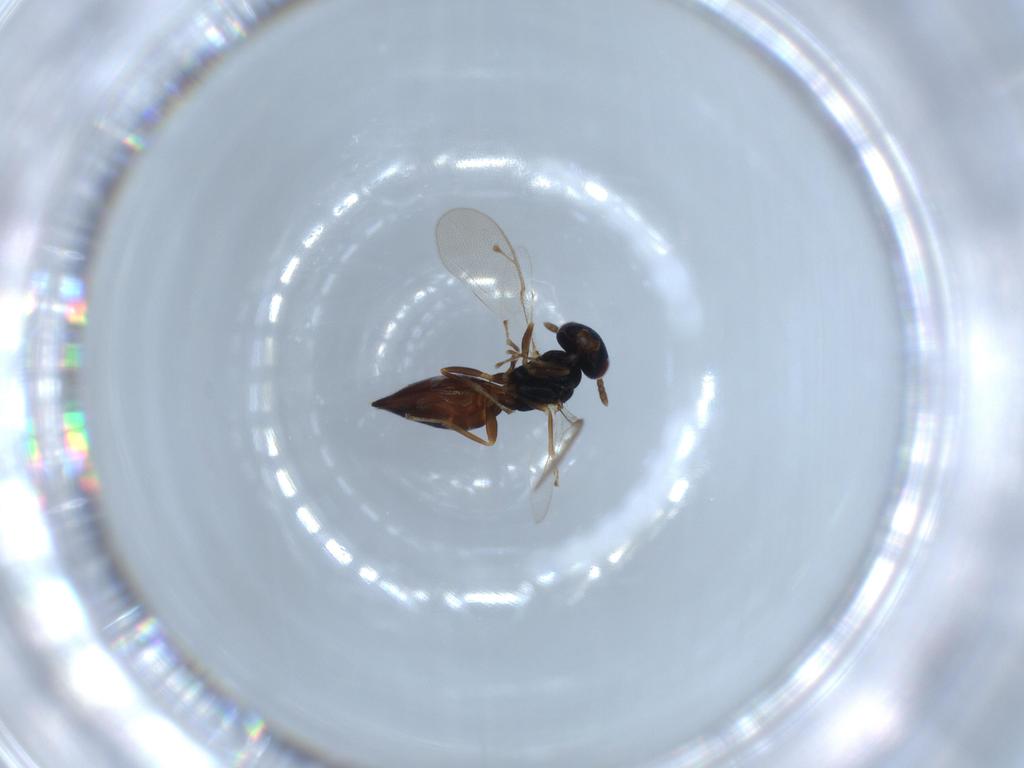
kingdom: Animalia
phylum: Arthropoda
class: Insecta
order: Hymenoptera
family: Pteromalidae
